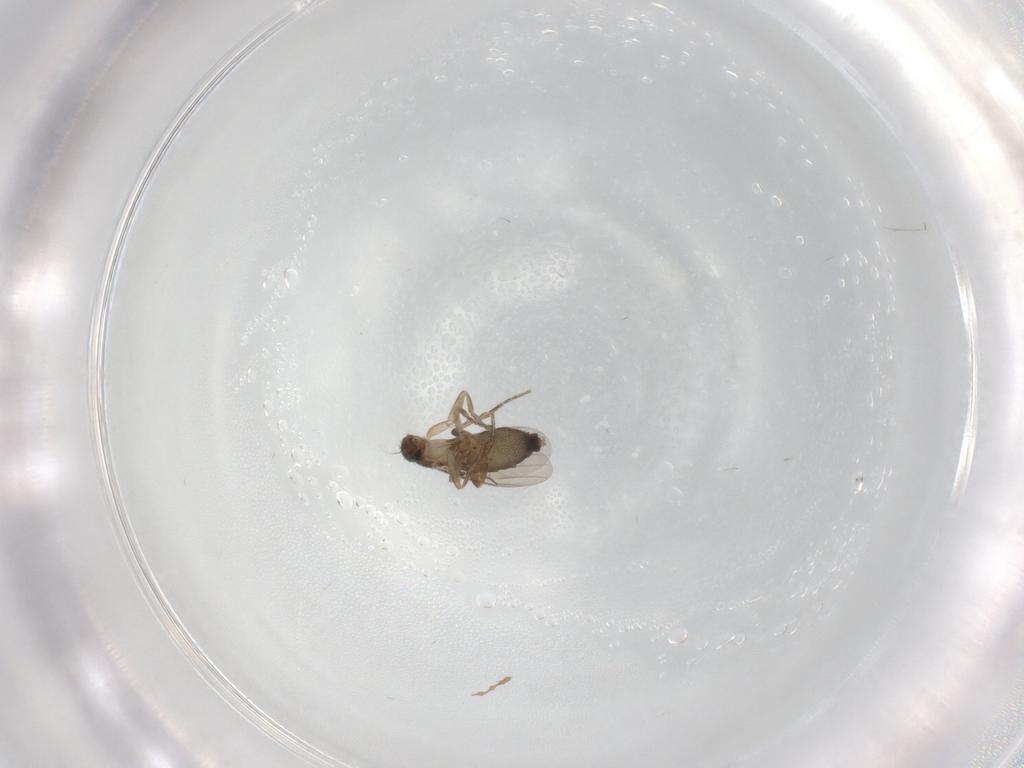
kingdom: Animalia
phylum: Arthropoda
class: Insecta
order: Diptera
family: Phoridae
